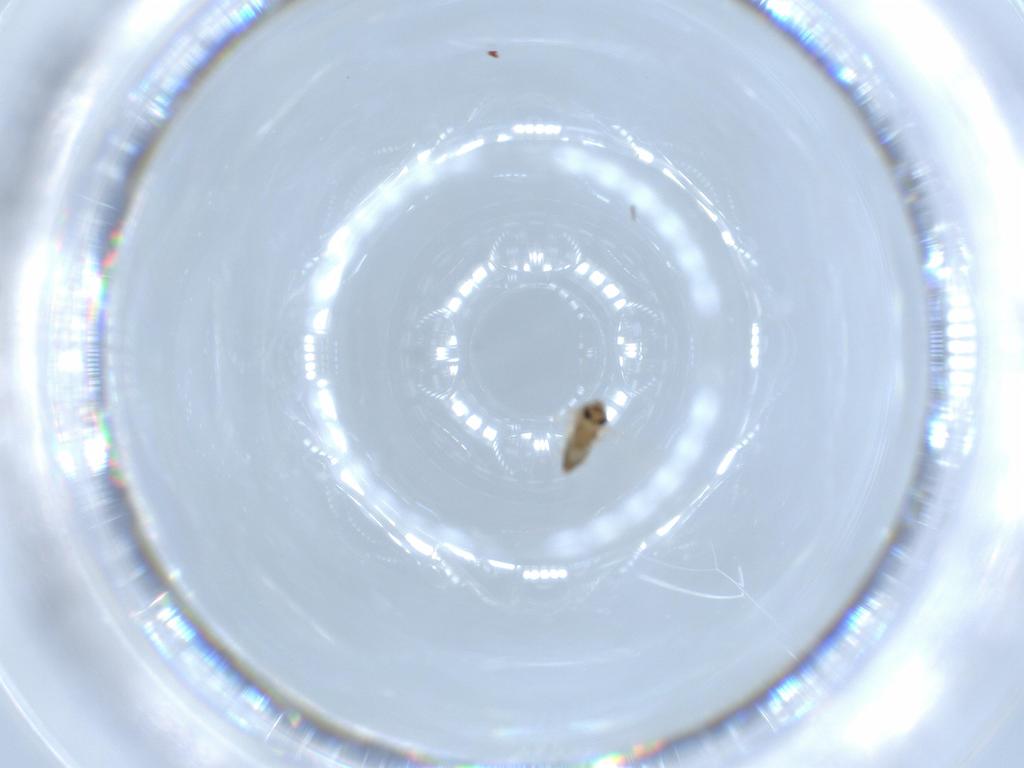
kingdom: Animalia
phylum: Arthropoda
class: Insecta
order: Diptera
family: Chironomidae
